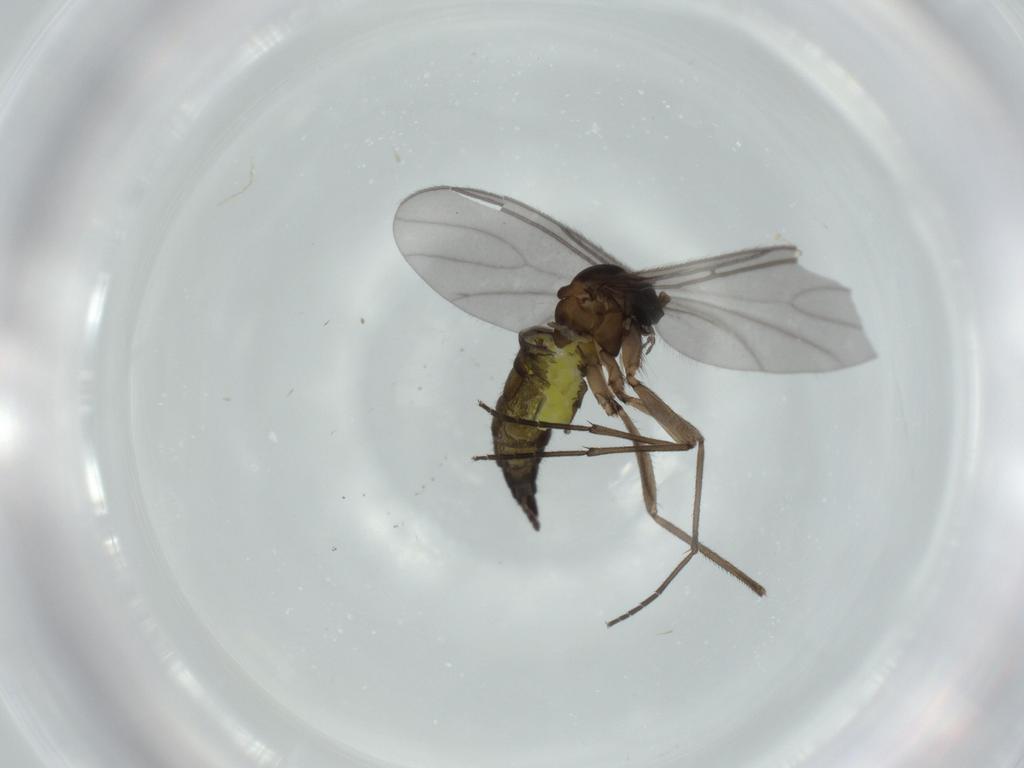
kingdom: Animalia
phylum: Arthropoda
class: Insecta
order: Diptera
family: Sciaridae
